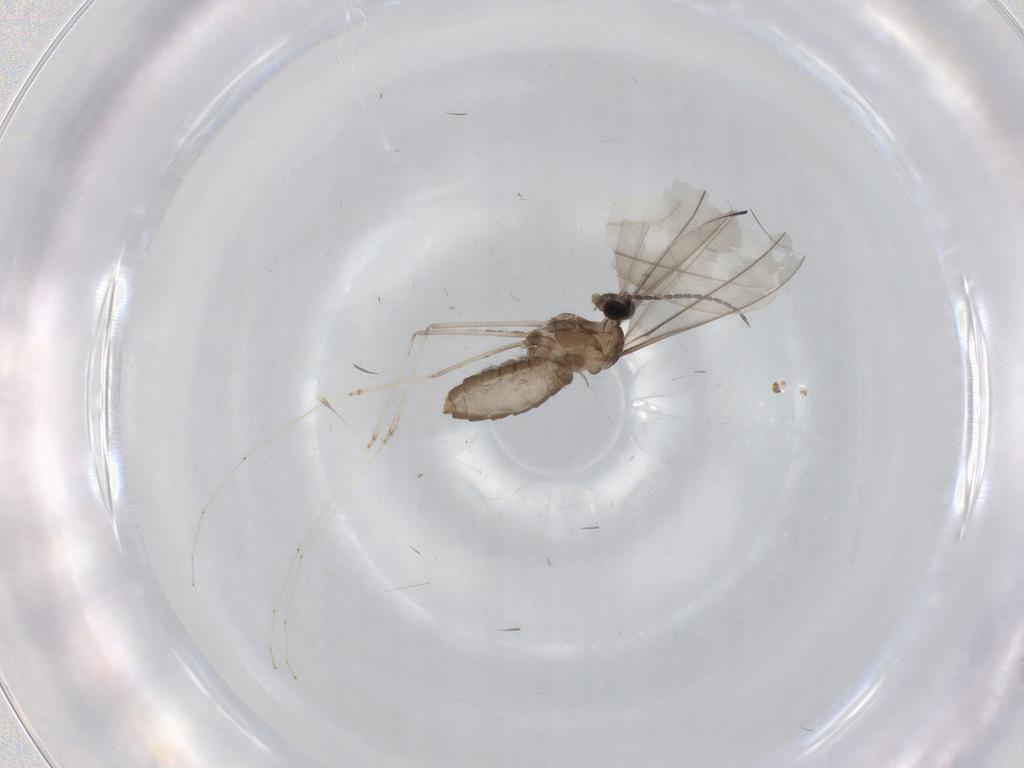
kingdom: Animalia
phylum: Arthropoda
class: Insecta
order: Diptera
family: Cecidomyiidae
